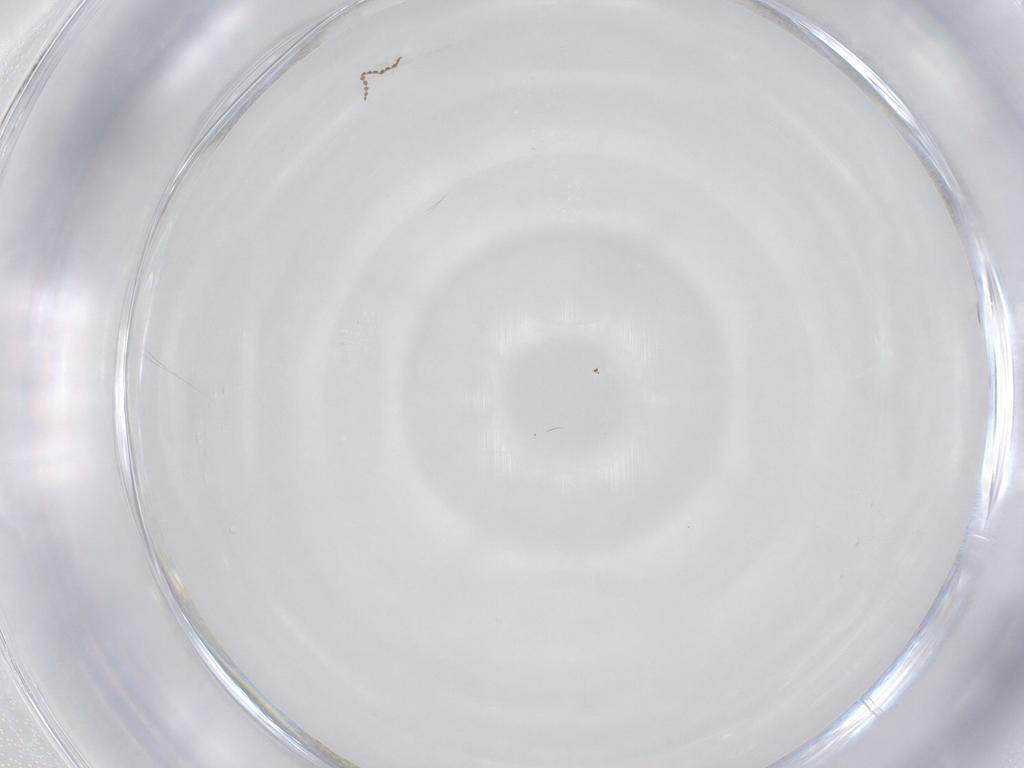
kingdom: Animalia
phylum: Arthropoda
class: Insecta
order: Diptera
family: Cecidomyiidae
